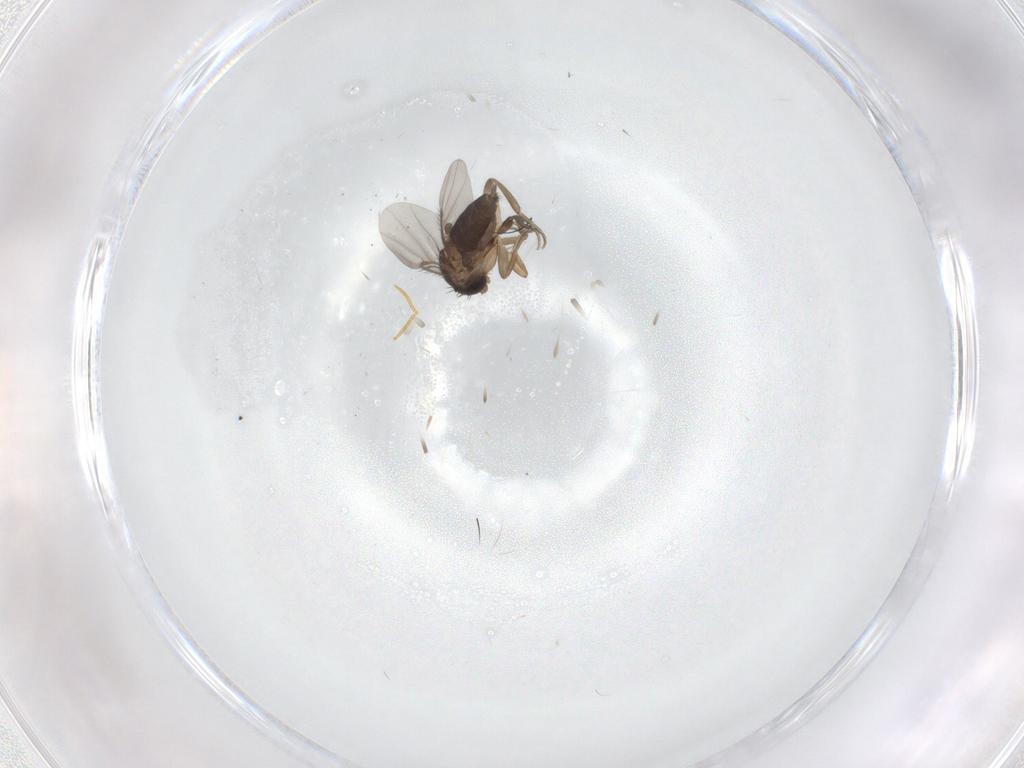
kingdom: Animalia
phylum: Arthropoda
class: Insecta
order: Diptera
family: Phoridae
